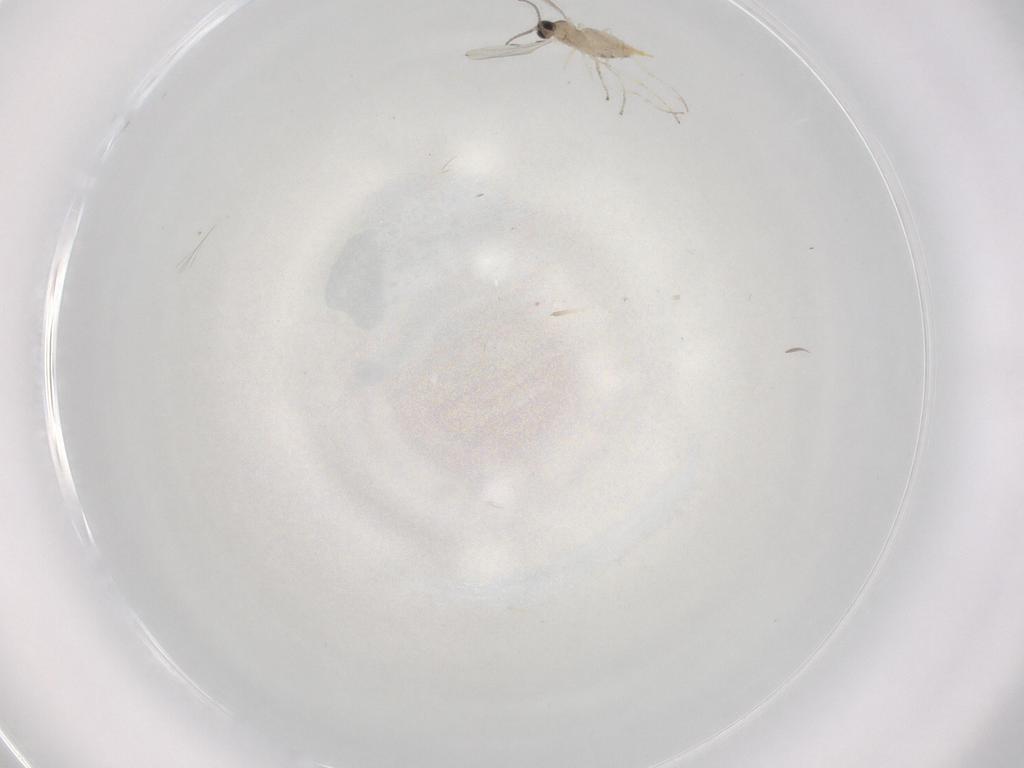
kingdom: Animalia
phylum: Arthropoda
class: Insecta
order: Diptera
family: Cecidomyiidae
